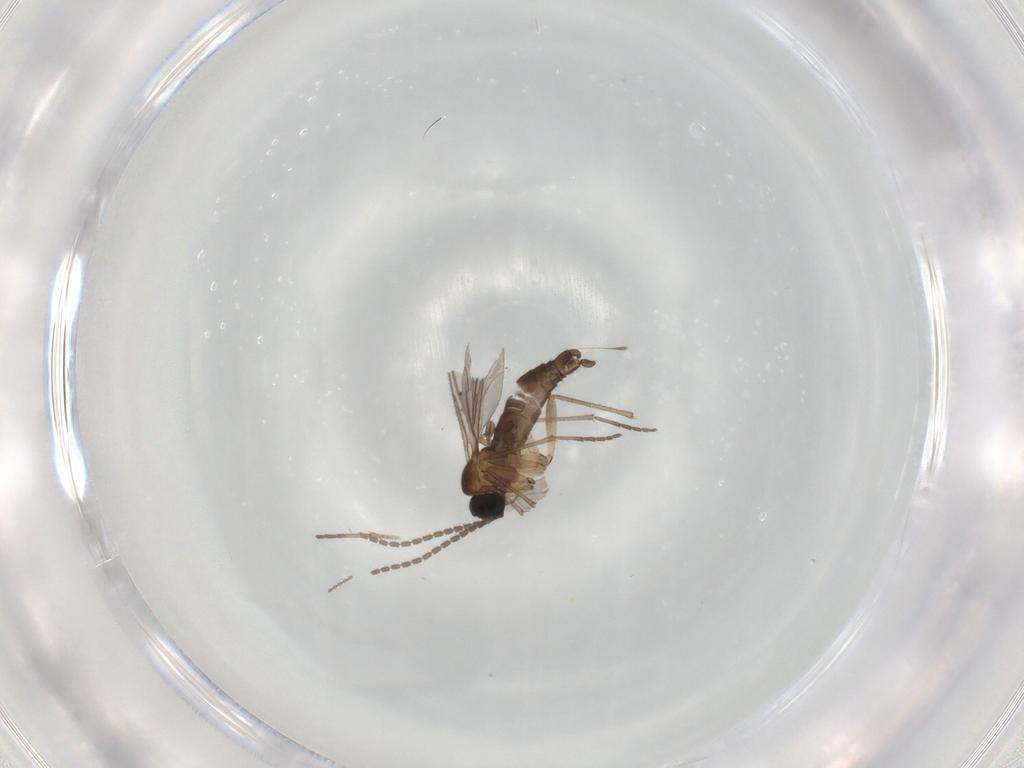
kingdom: Animalia
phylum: Arthropoda
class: Insecta
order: Diptera
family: Sciaridae
